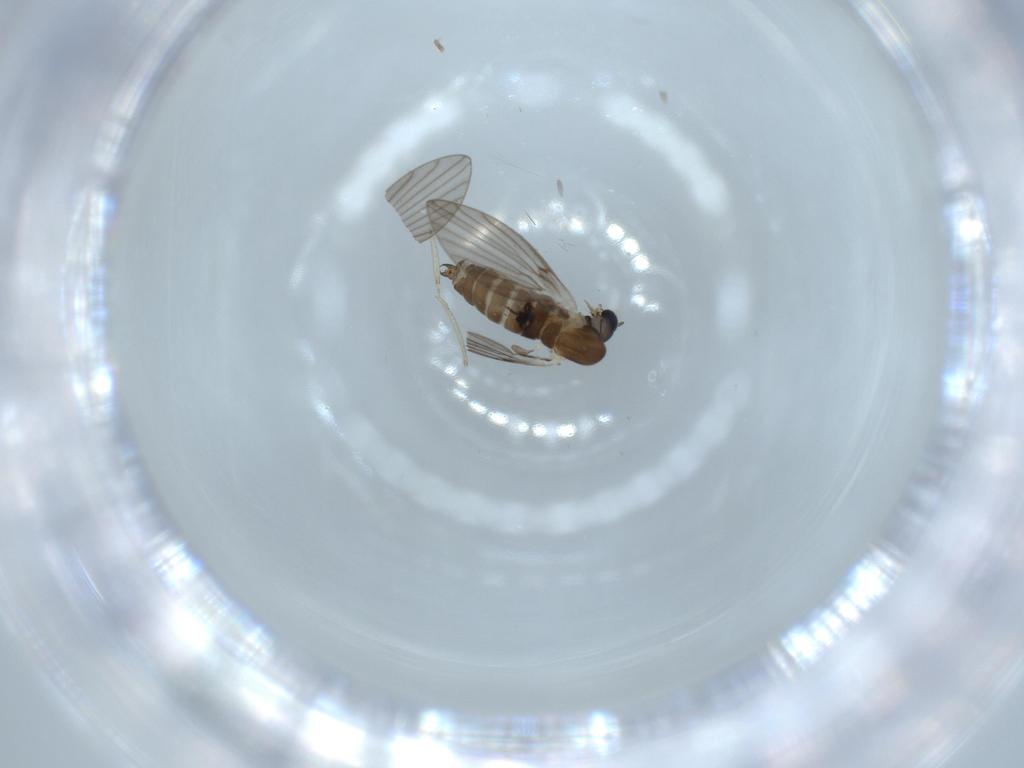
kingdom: Animalia
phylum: Arthropoda
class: Insecta
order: Diptera
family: Psychodidae
